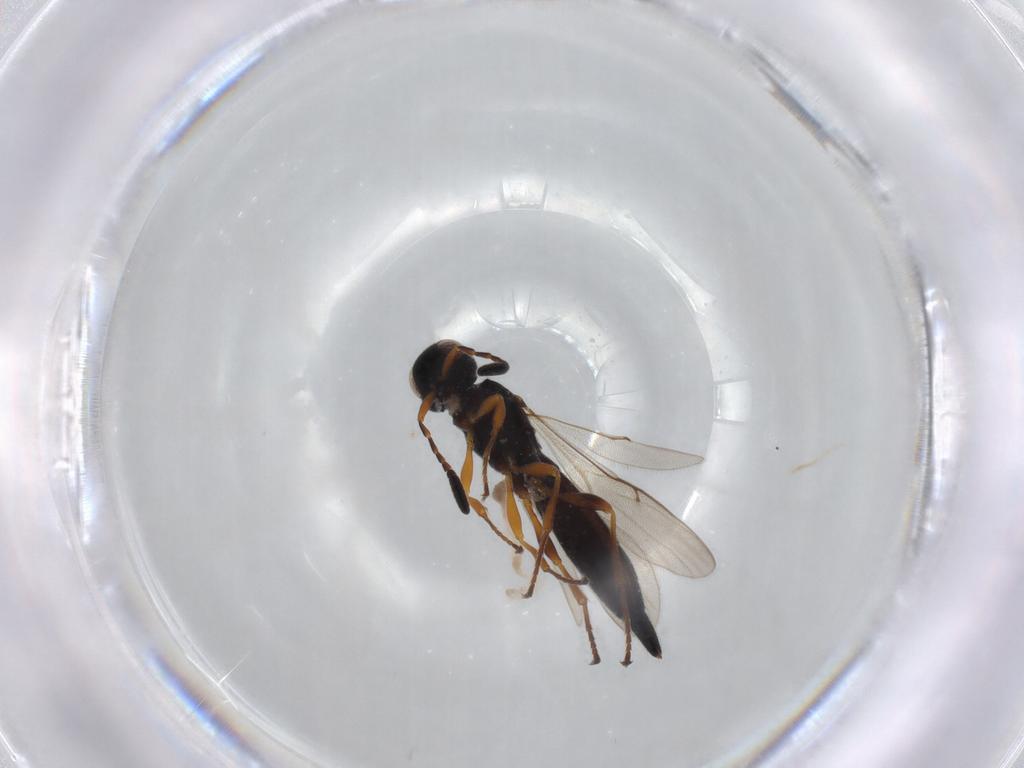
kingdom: Animalia
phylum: Arthropoda
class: Insecta
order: Hymenoptera
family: Scelionidae
